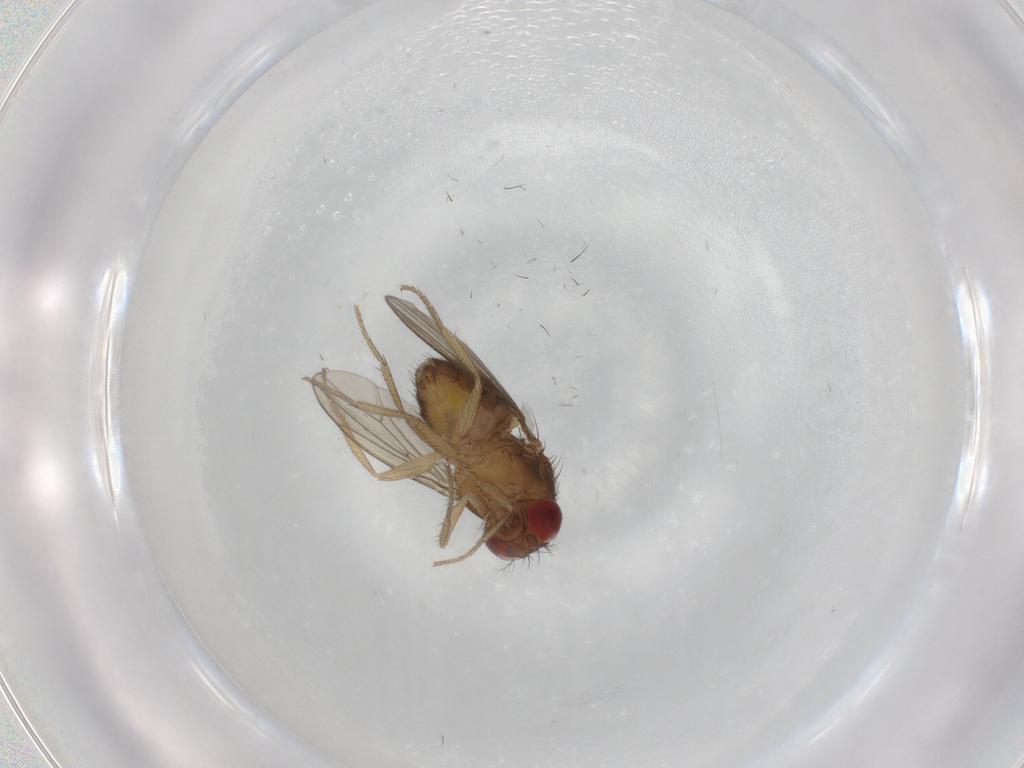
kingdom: Animalia
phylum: Arthropoda
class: Insecta
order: Diptera
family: Drosophilidae
